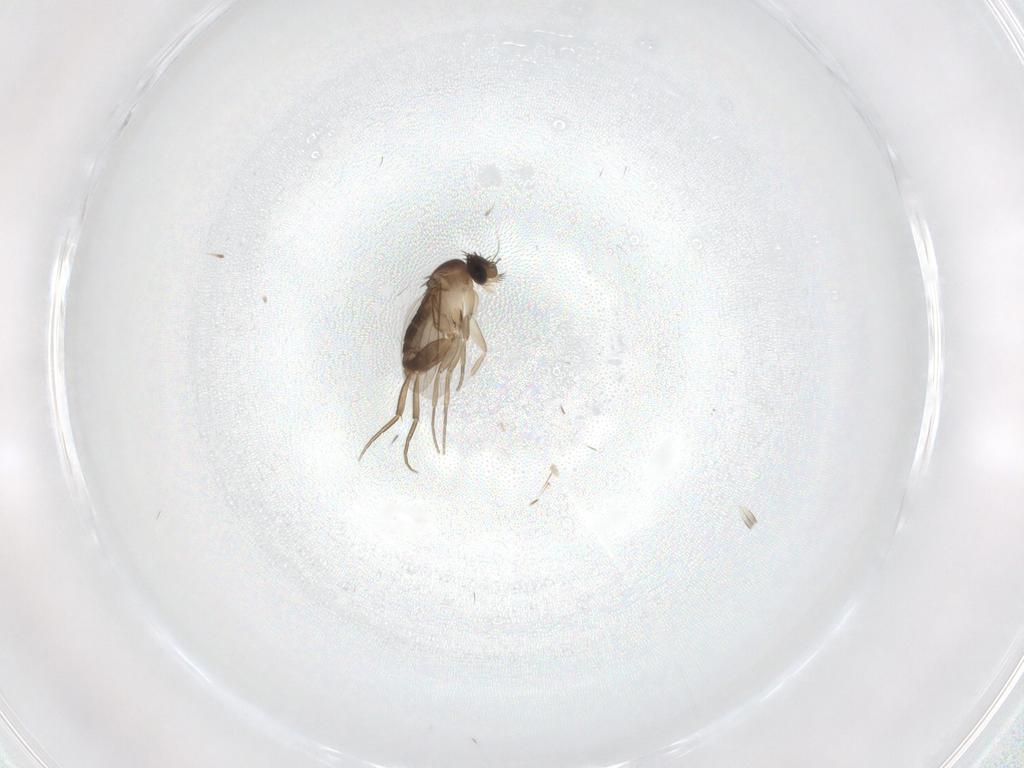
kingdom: Animalia
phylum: Arthropoda
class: Insecta
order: Diptera
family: Phoridae
